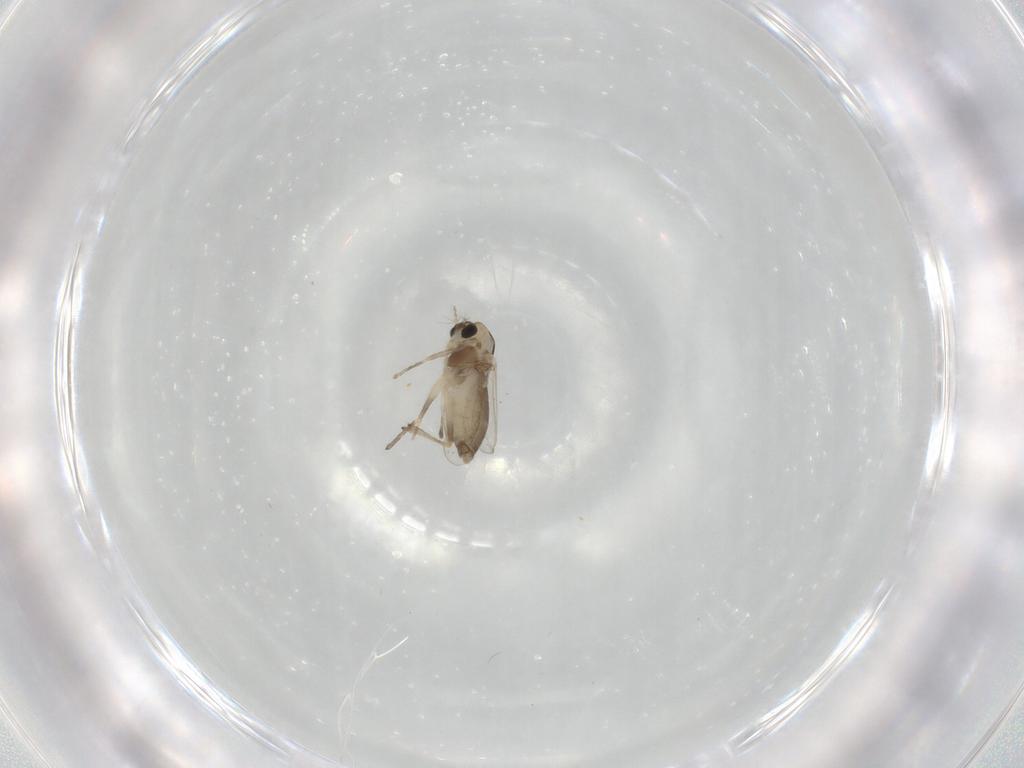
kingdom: Animalia
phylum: Arthropoda
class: Insecta
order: Diptera
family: Chironomidae
